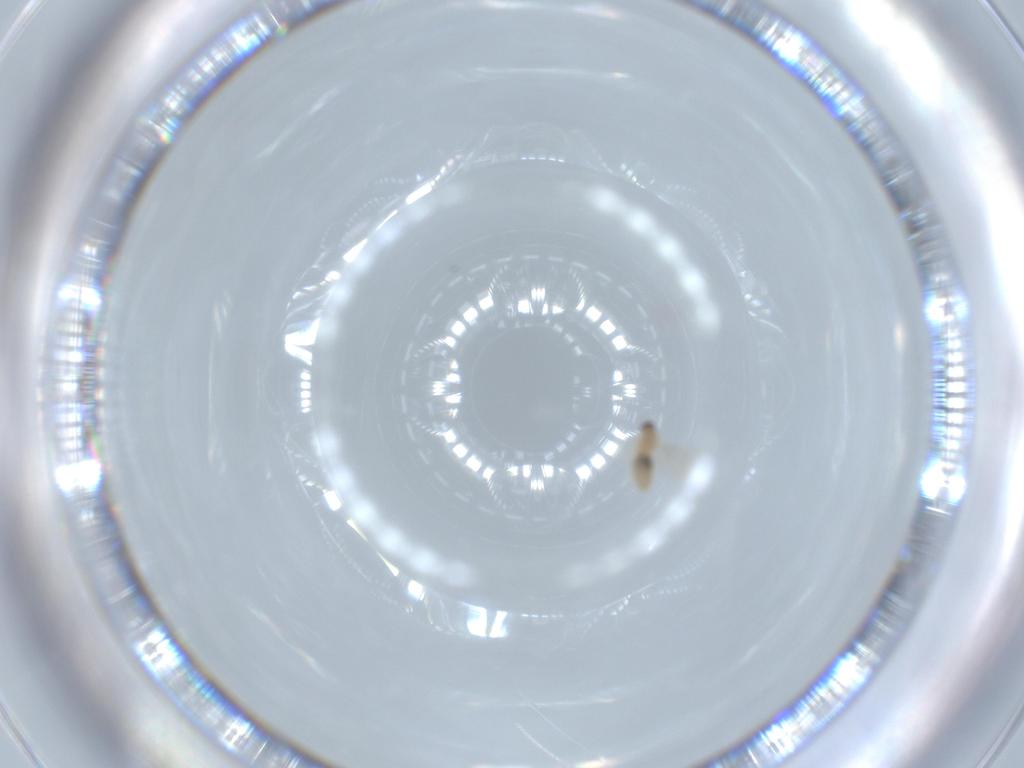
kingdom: Animalia
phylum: Arthropoda
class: Insecta
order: Diptera
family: Cecidomyiidae
